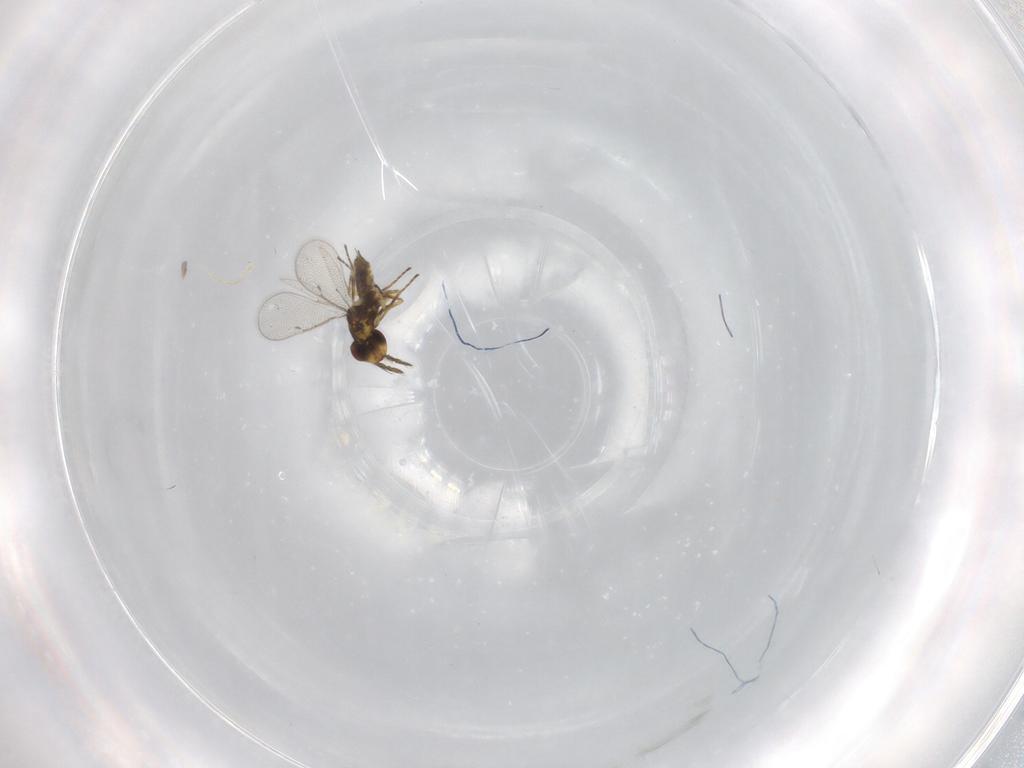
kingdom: Animalia
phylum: Arthropoda
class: Insecta
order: Hymenoptera
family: Eulophidae
